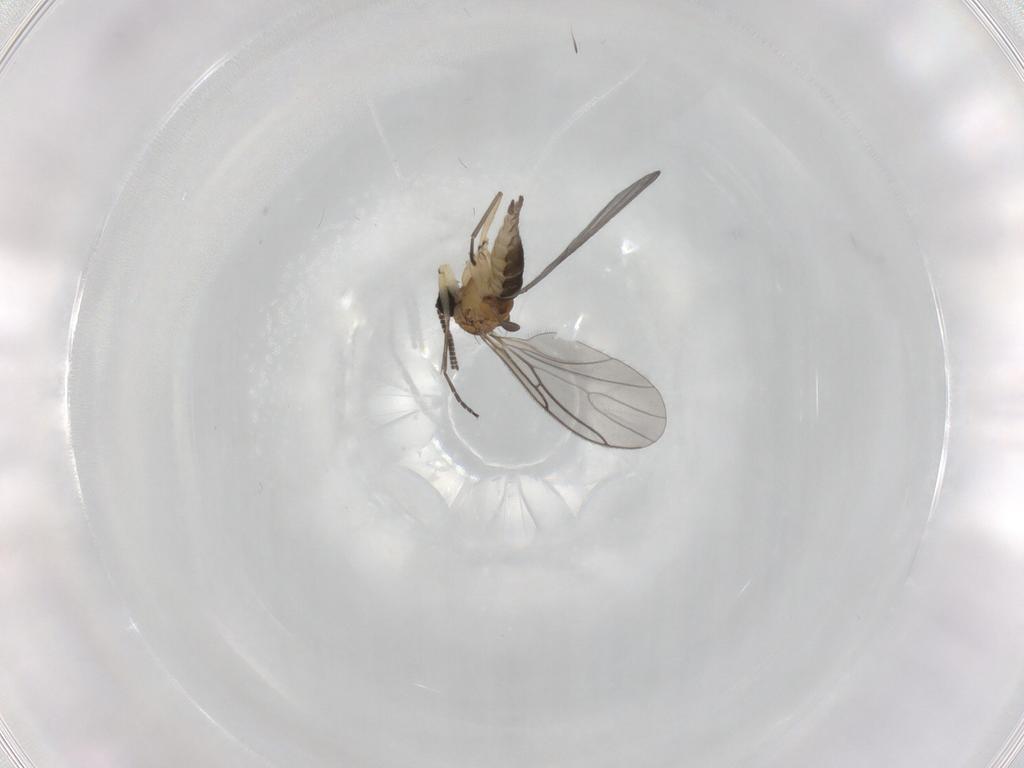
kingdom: Animalia
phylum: Arthropoda
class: Insecta
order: Diptera
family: Sciaridae
